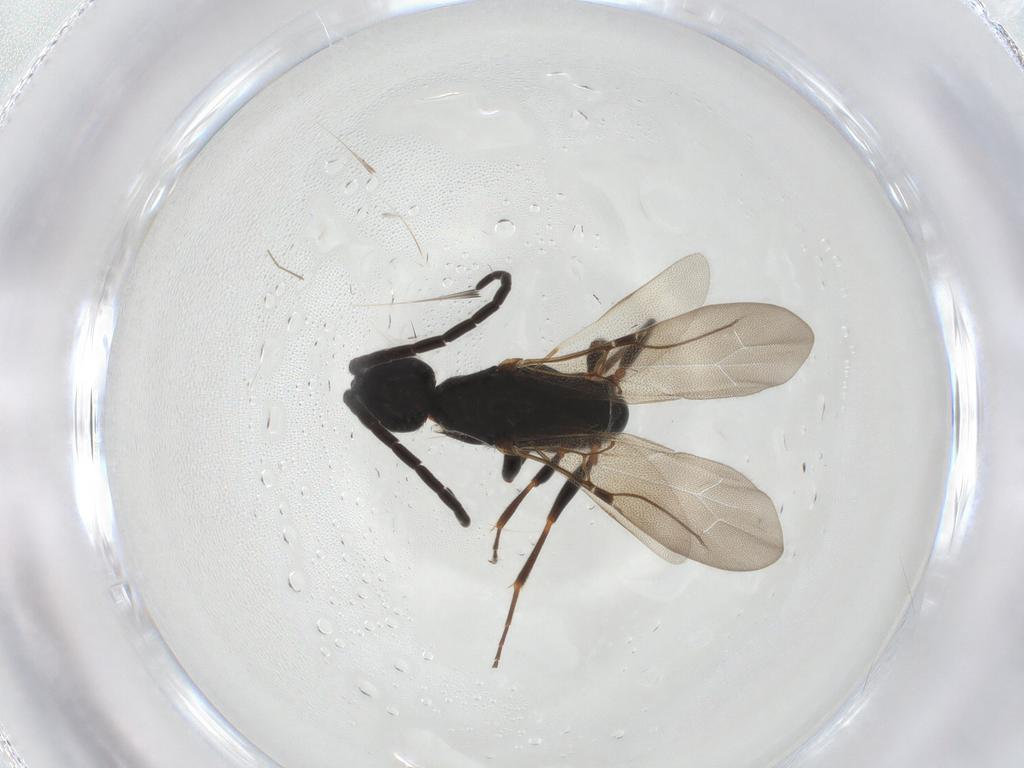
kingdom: Animalia
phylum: Arthropoda
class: Insecta
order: Hymenoptera
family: Bethylidae
